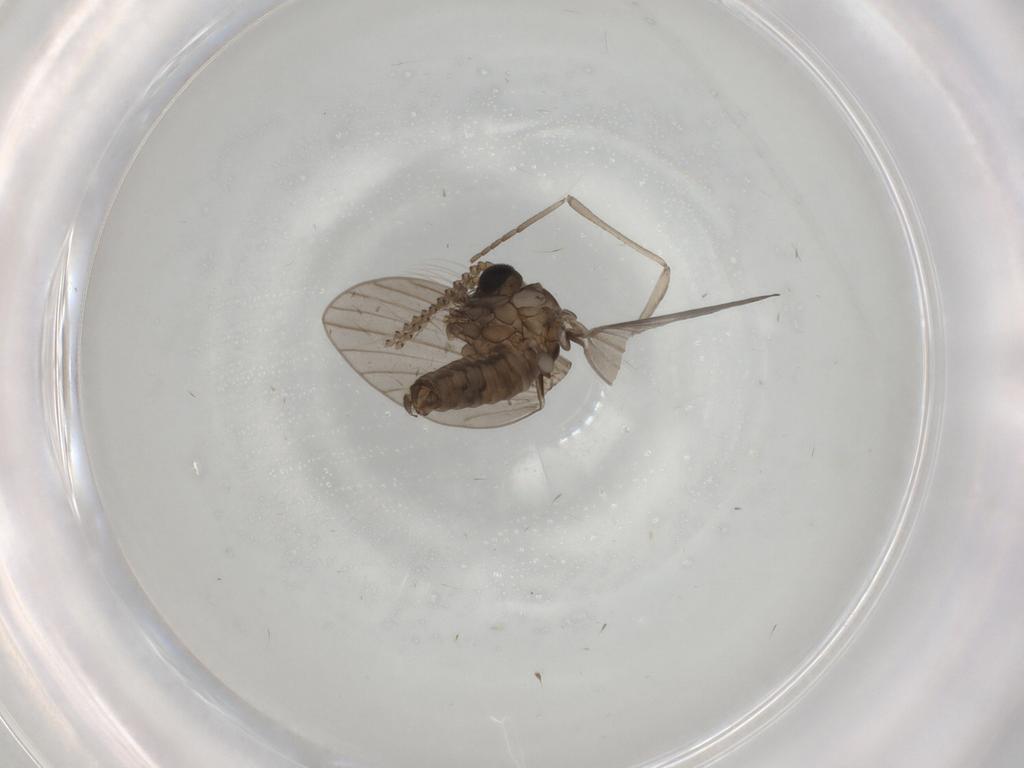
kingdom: Animalia
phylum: Arthropoda
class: Insecta
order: Diptera
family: Psychodidae
